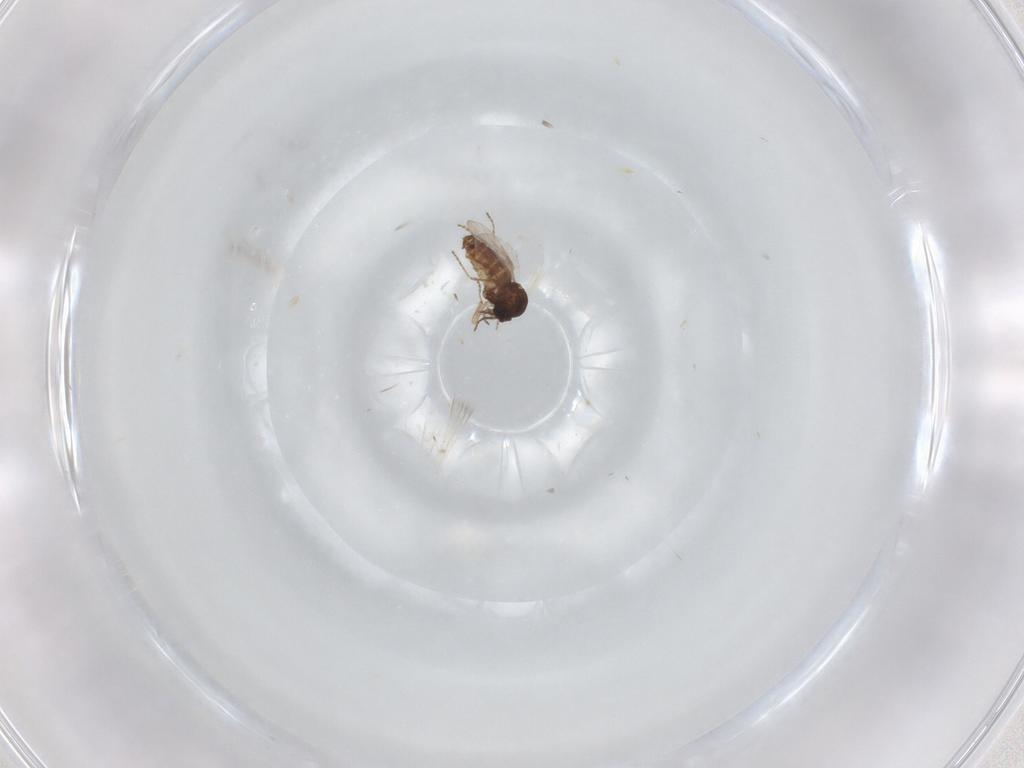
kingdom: Animalia
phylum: Arthropoda
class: Insecta
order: Diptera
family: Ceratopogonidae
